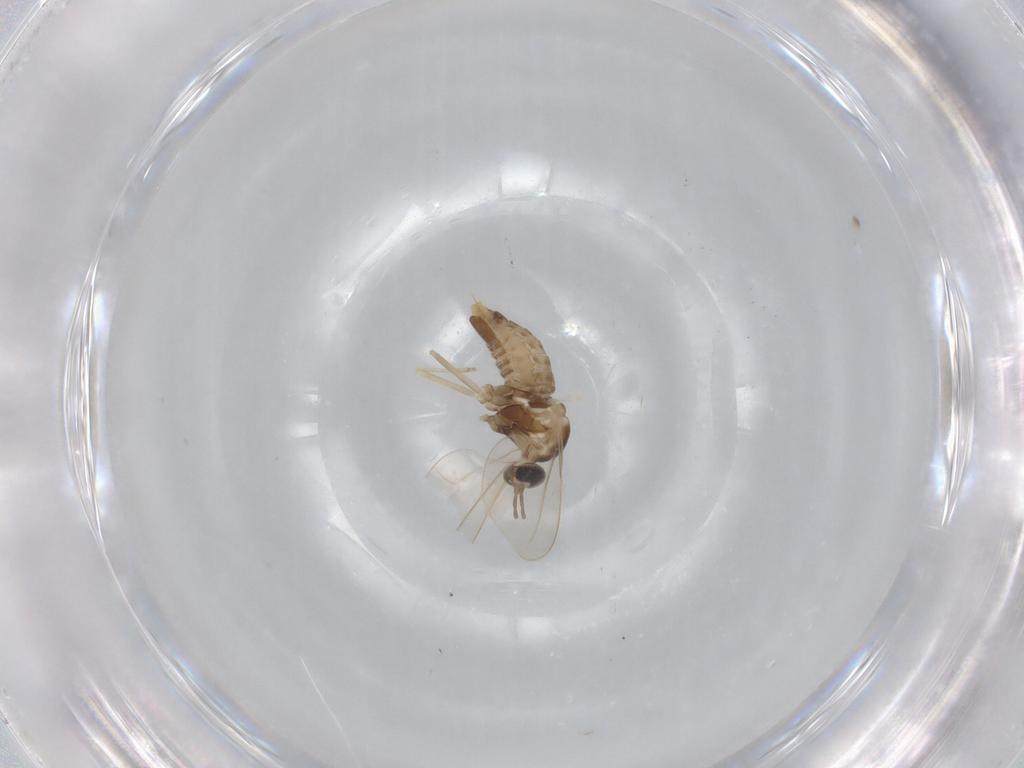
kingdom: Animalia
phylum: Arthropoda
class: Insecta
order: Diptera
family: Cecidomyiidae
